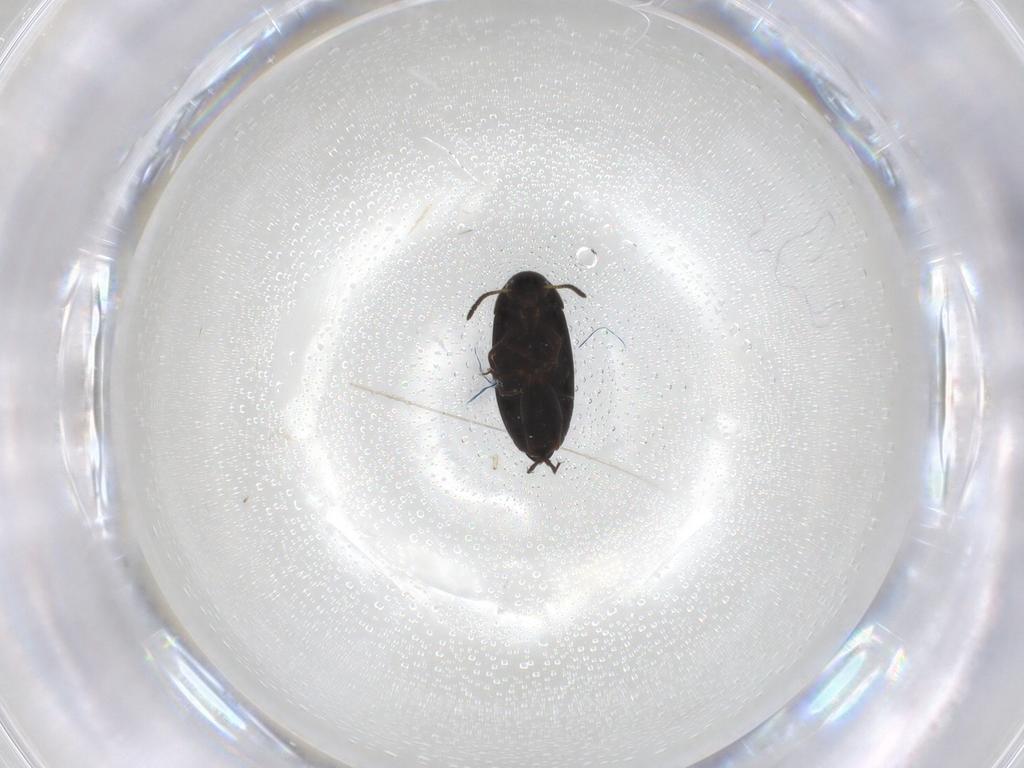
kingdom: Animalia
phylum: Arthropoda
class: Insecta
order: Coleoptera
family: Scraptiidae
